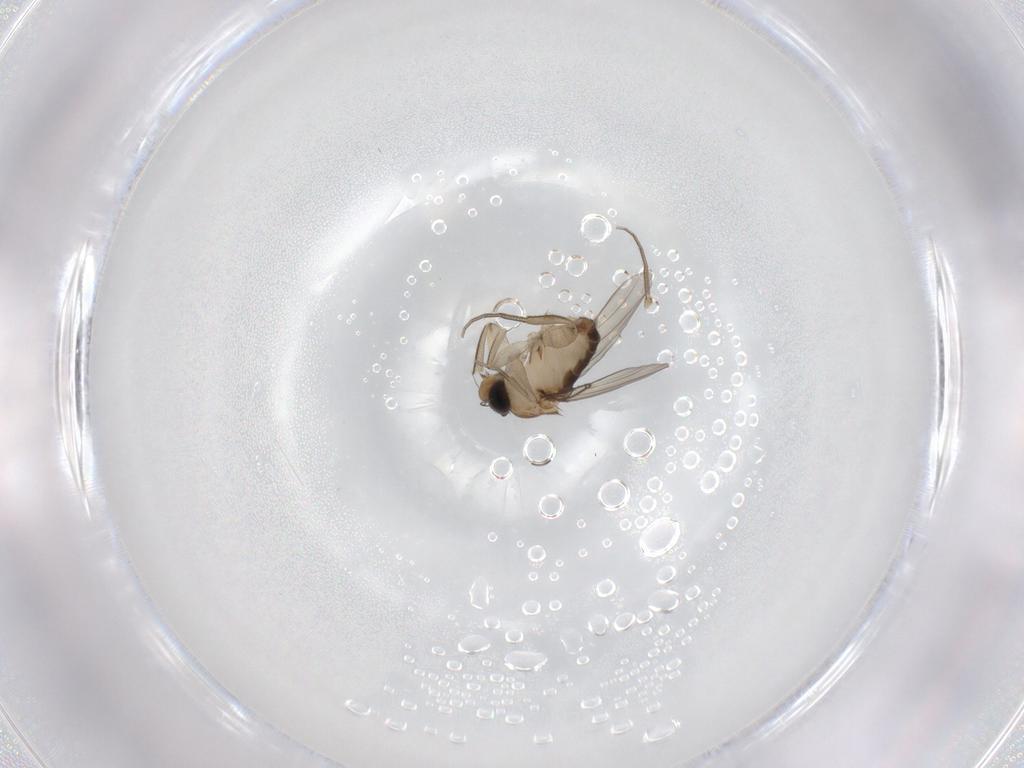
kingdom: Animalia
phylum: Arthropoda
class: Insecta
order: Diptera
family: Phoridae
